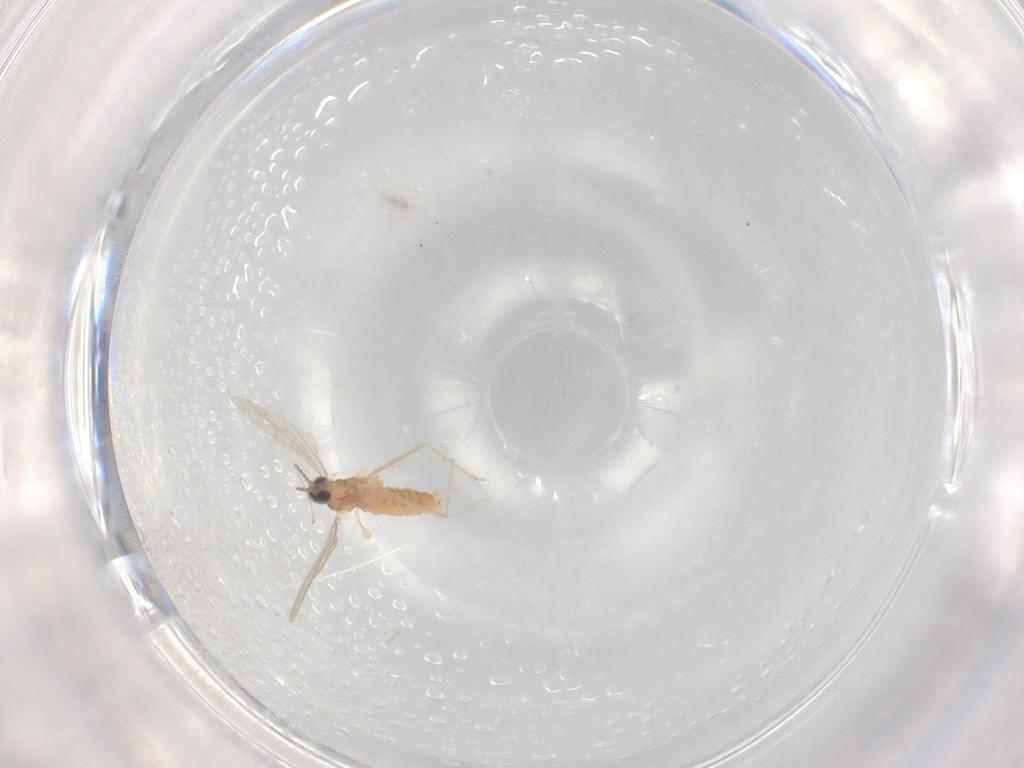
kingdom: Animalia
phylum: Arthropoda
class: Insecta
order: Diptera
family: Cecidomyiidae
